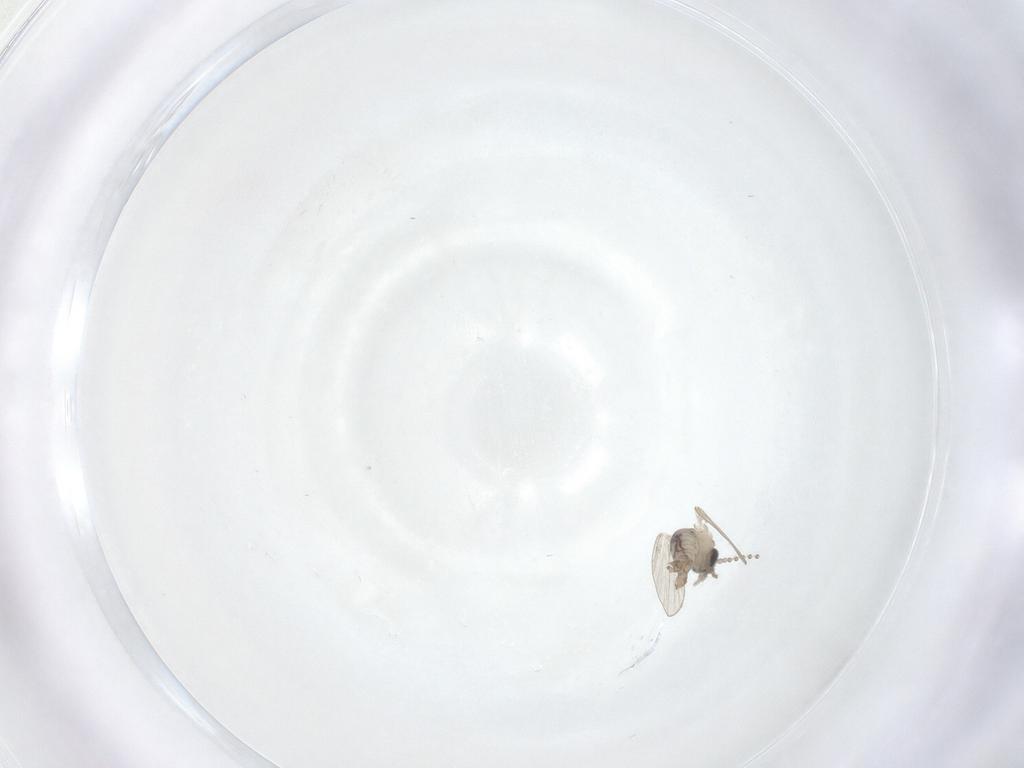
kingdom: Animalia
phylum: Arthropoda
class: Insecta
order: Diptera
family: Psychodidae
